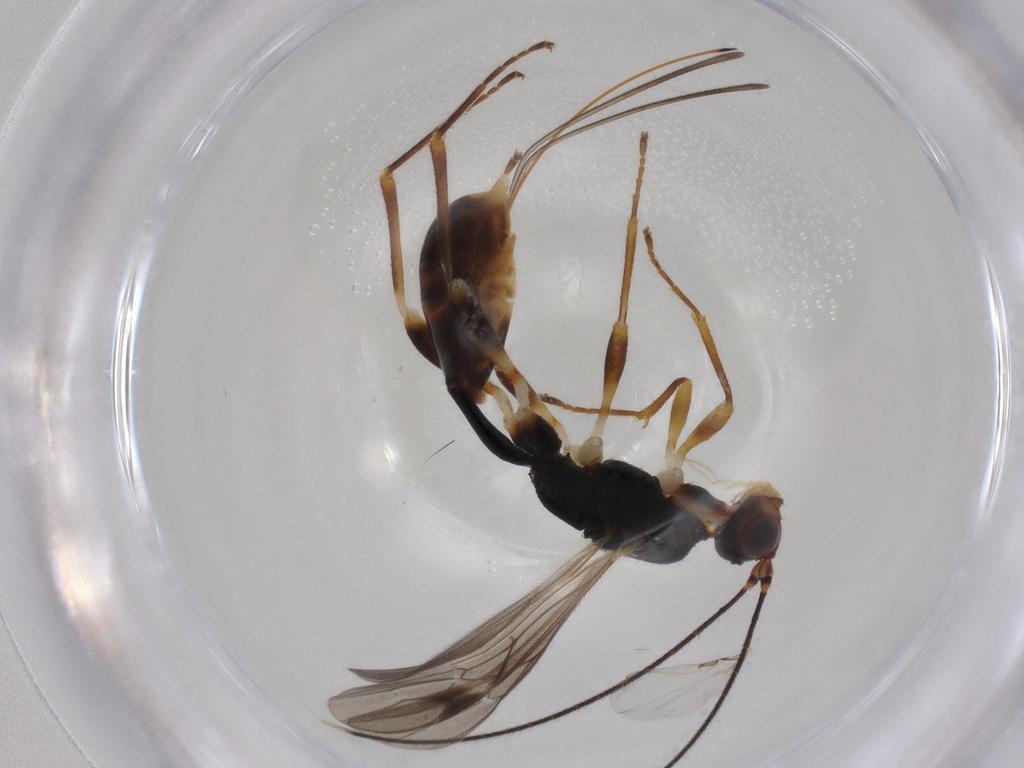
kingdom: Animalia
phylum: Arthropoda
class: Insecta
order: Hymenoptera
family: Braconidae
